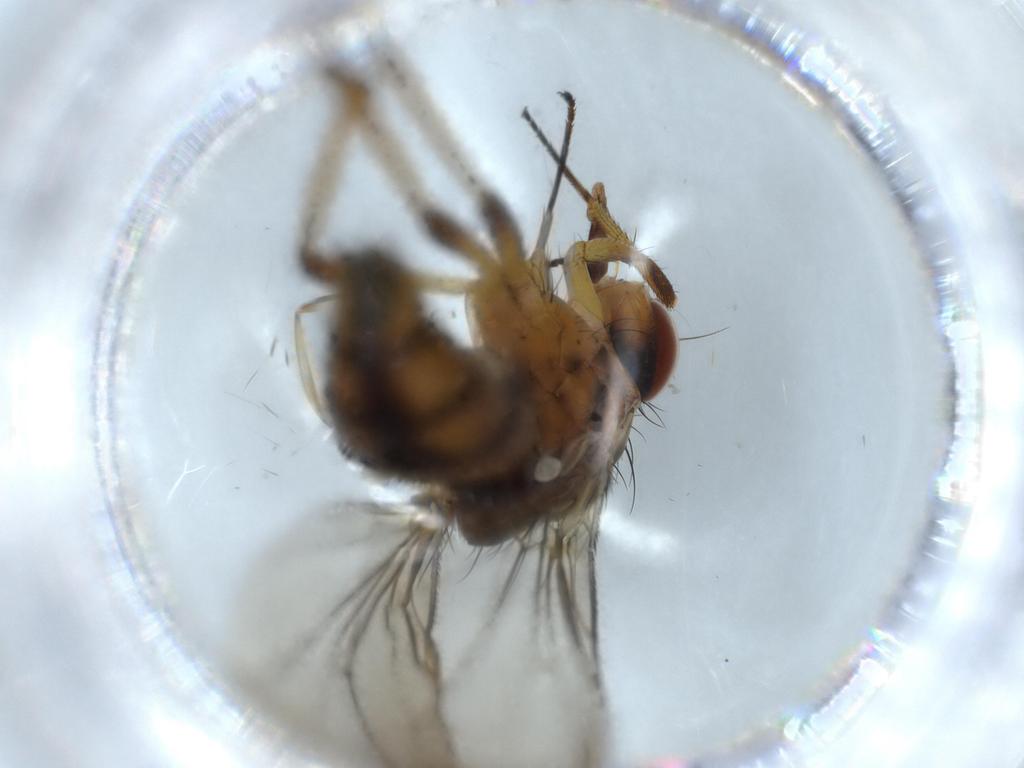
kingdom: Animalia
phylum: Arthropoda
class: Insecta
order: Diptera
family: Anthomyiidae
